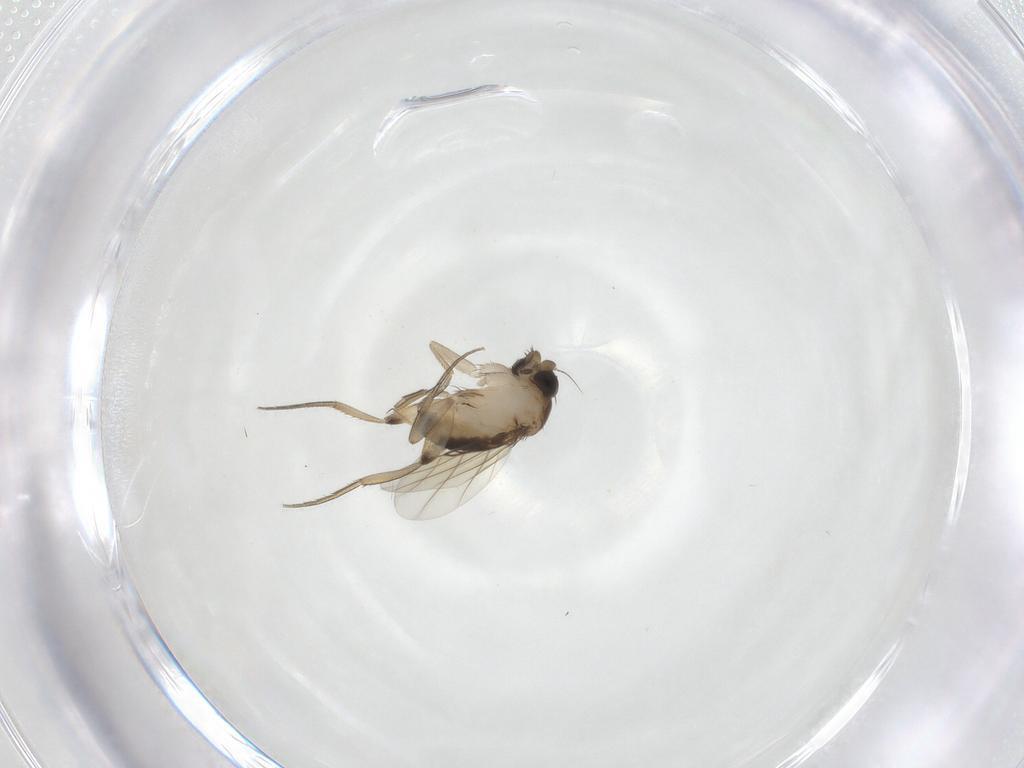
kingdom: Animalia
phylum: Arthropoda
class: Insecta
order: Diptera
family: Phoridae
